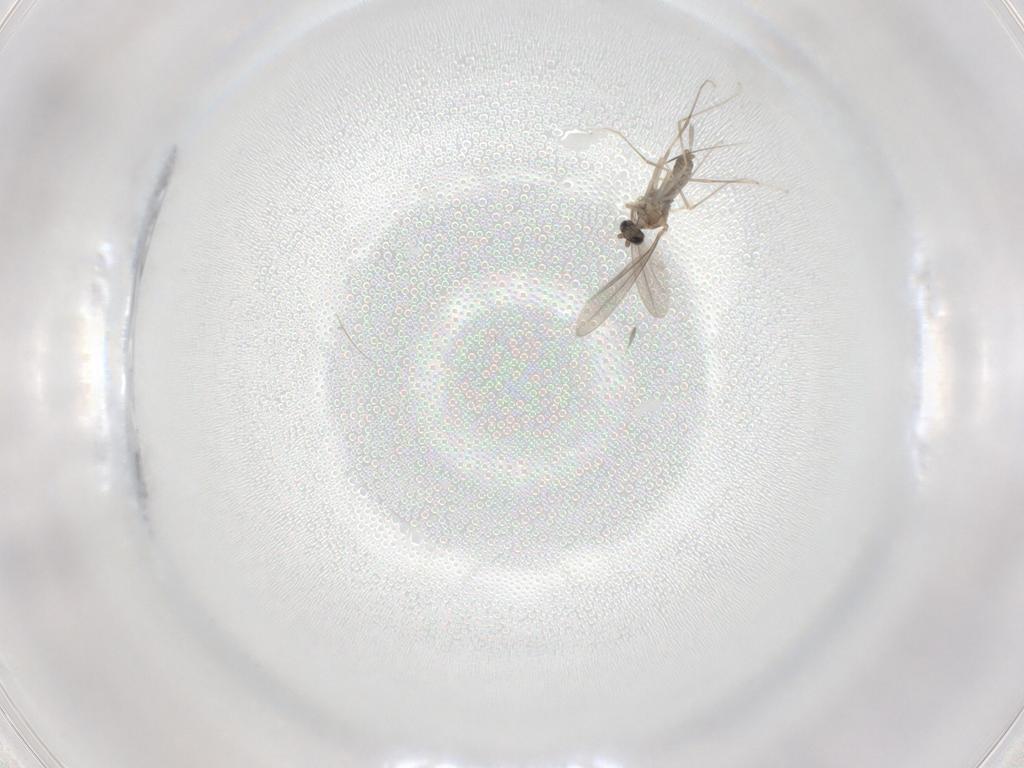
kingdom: Animalia
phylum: Arthropoda
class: Insecta
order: Diptera
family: Cecidomyiidae
